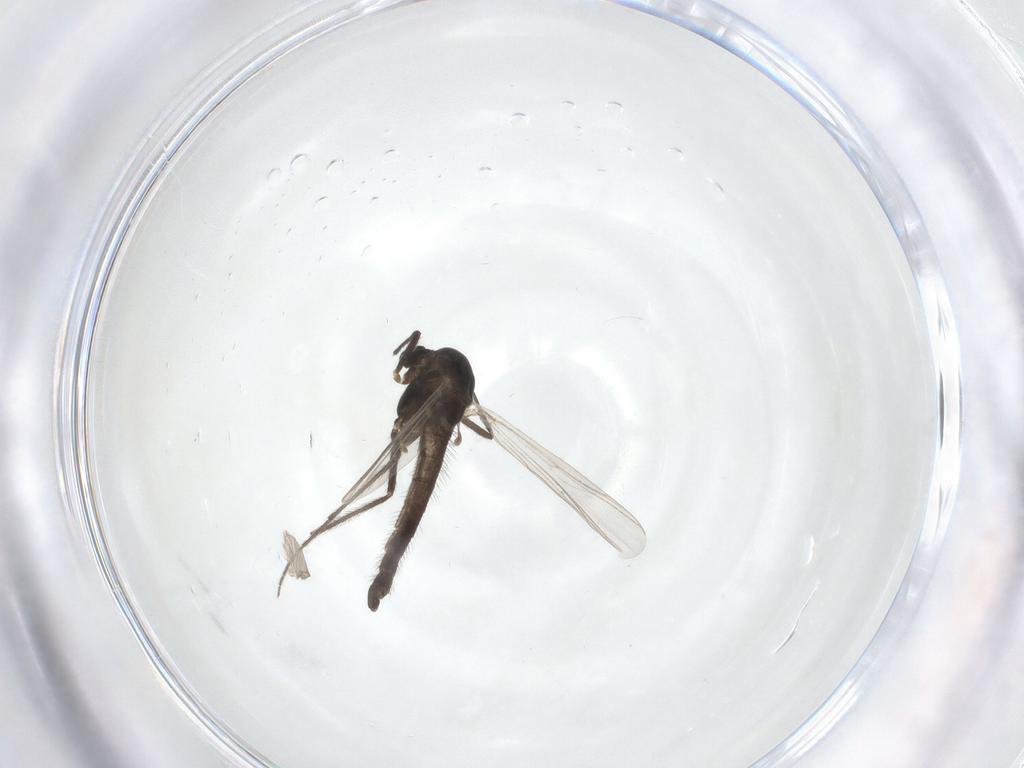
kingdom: Animalia
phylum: Arthropoda
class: Insecta
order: Diptera
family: Chironomidae
